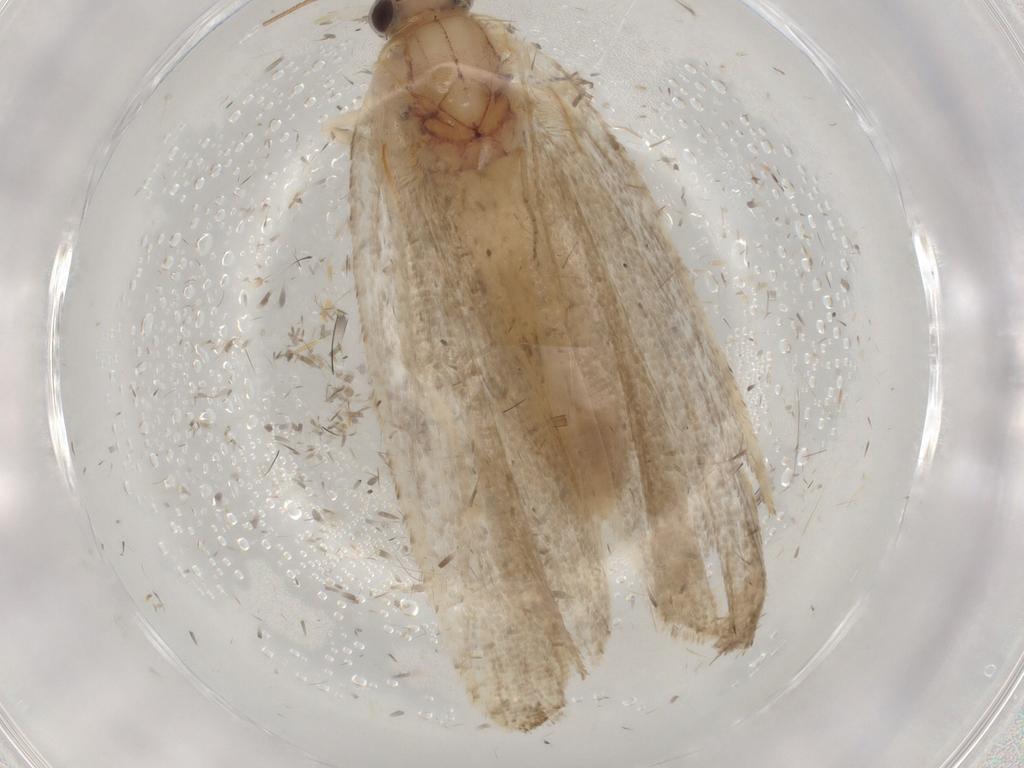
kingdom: Animalia
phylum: Arthropoda
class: Insecta
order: Lepidoptera
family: Tortricidae
